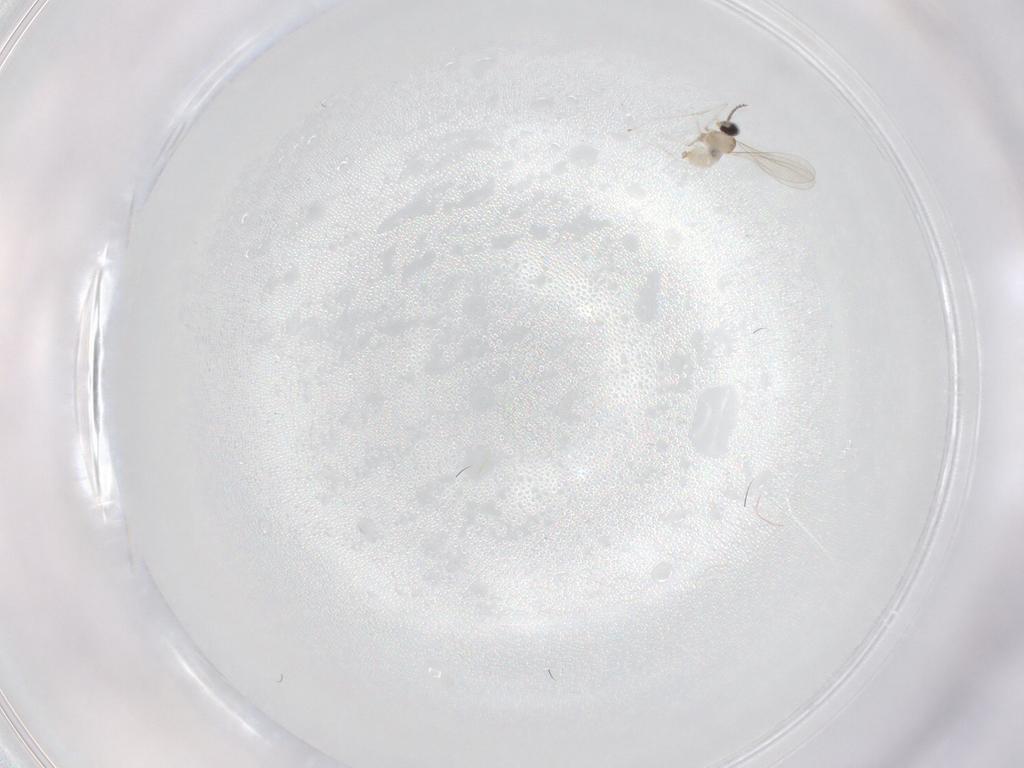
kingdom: Animalia
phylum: Arthropoda
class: Insecta
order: Diptera
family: Cecidomyiidae
